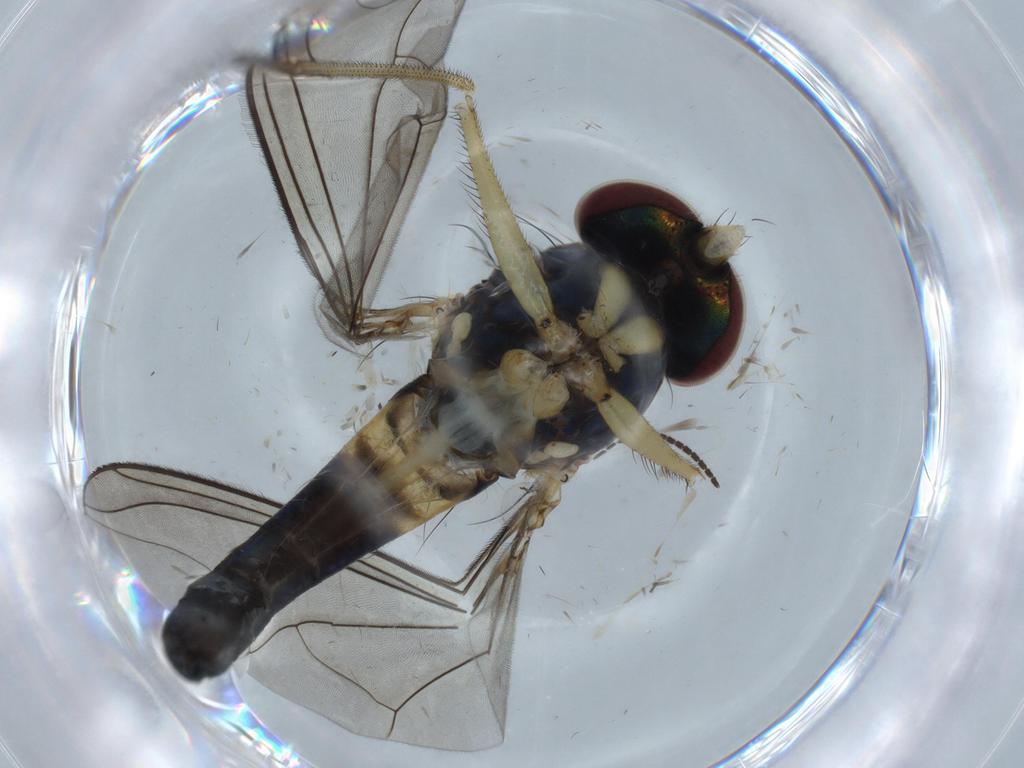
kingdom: Animalia
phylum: Arthropoda
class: Insecta
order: Diptera
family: Dolichopodidae
